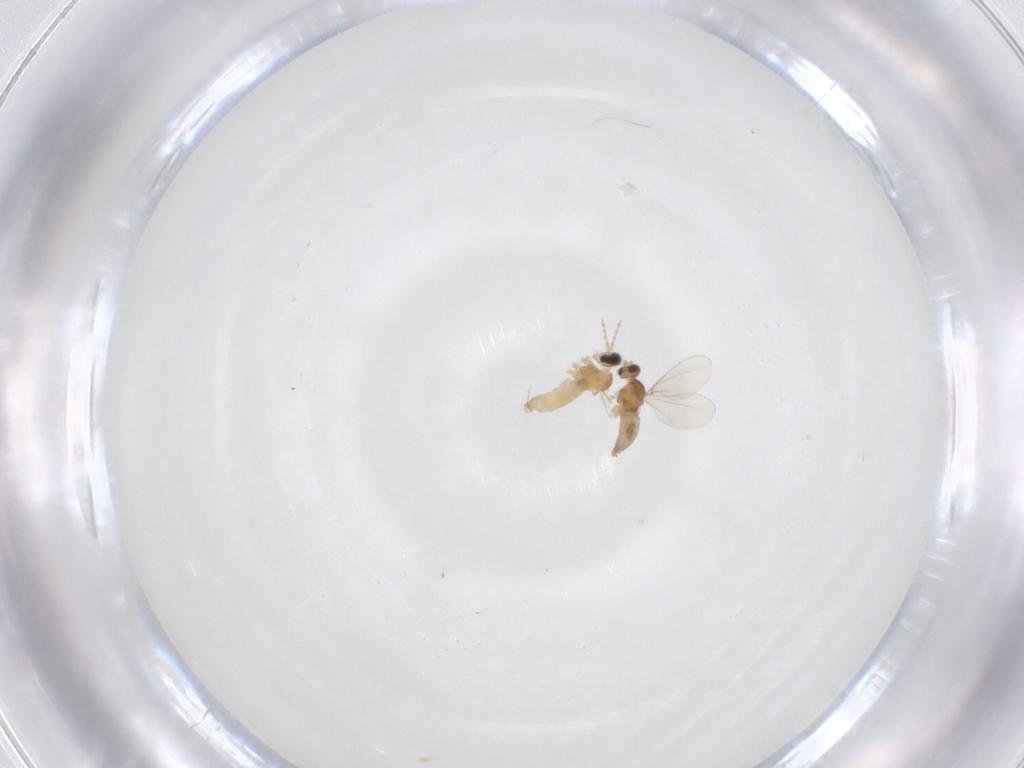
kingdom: Animalia
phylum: Arthropoda
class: Insecta
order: Diptera
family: Cecidomyiidae
